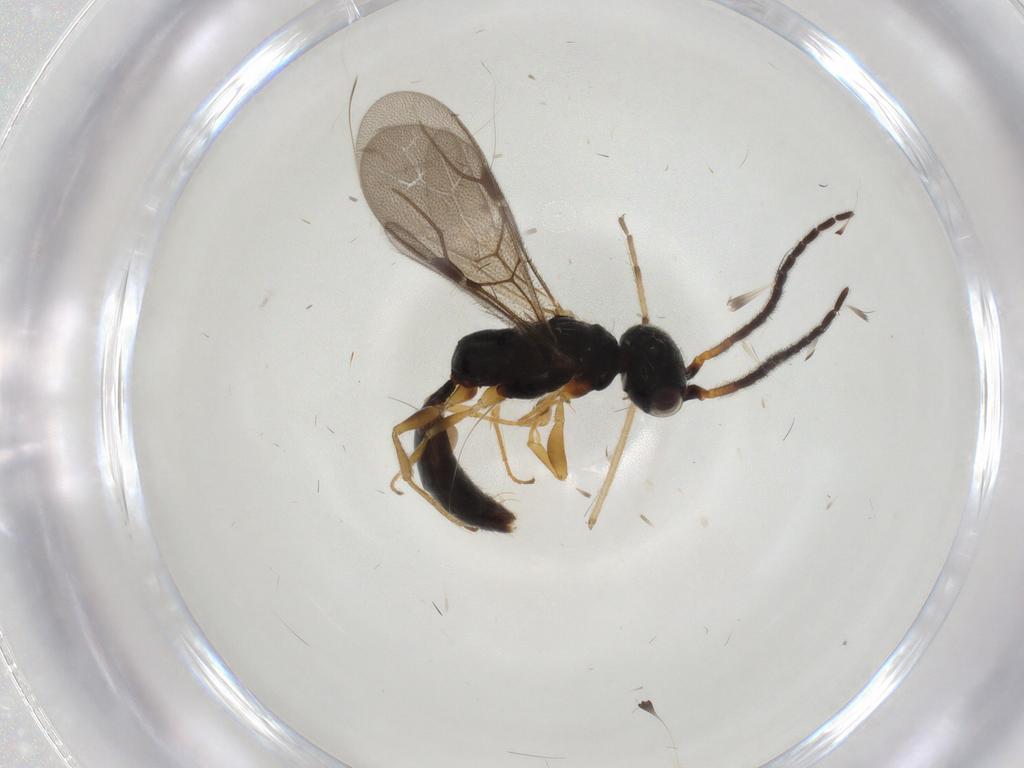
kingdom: Animalia
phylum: Arthropoda
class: Insecta
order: Hymenoptera
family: Bethylidae
